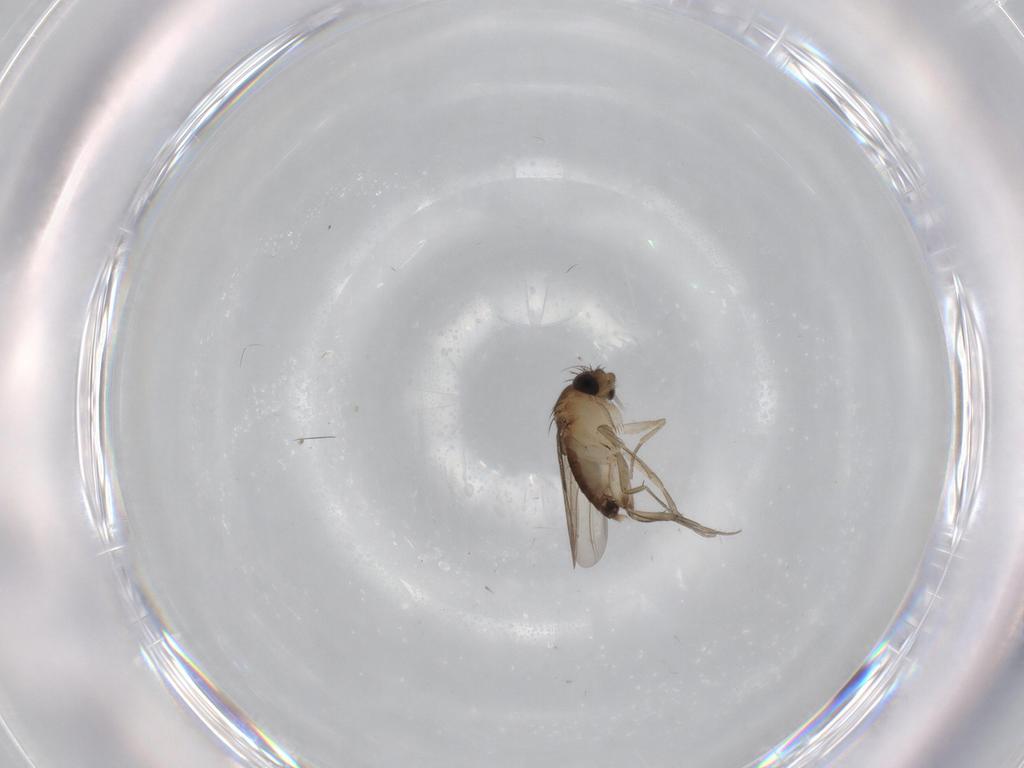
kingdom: Animalia
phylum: Arthropoda
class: Insecta
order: Diptera
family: Phoridae
